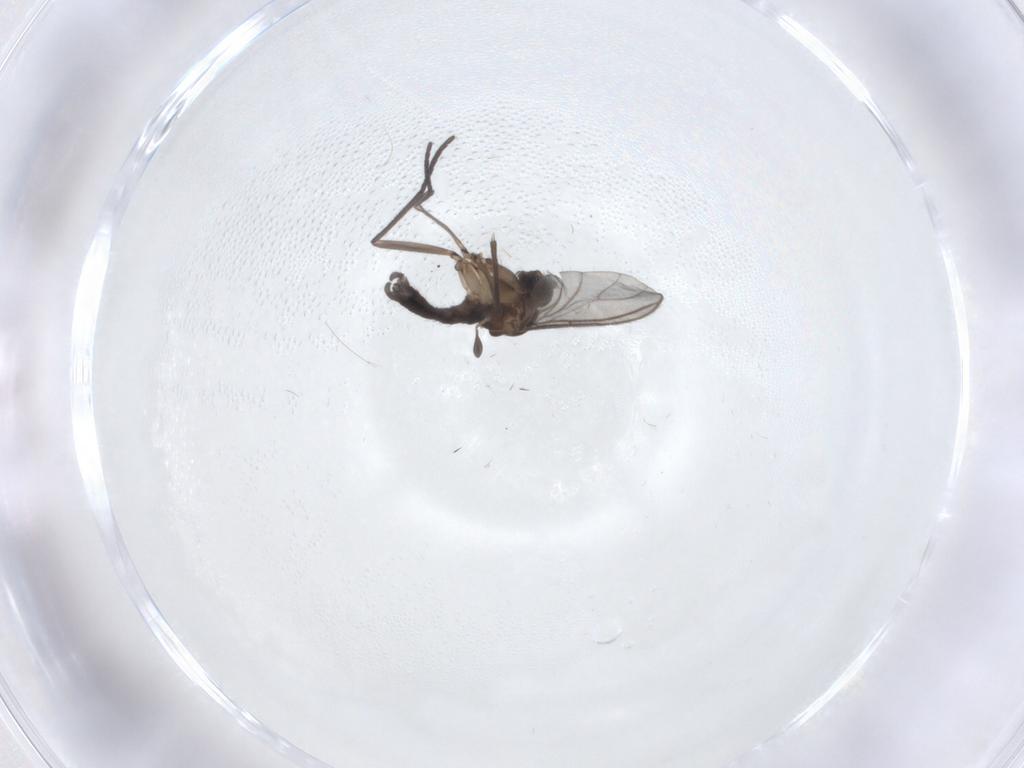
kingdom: Animalia
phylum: Arthropoda
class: Insecta
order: Diptera
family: Sciaridae
